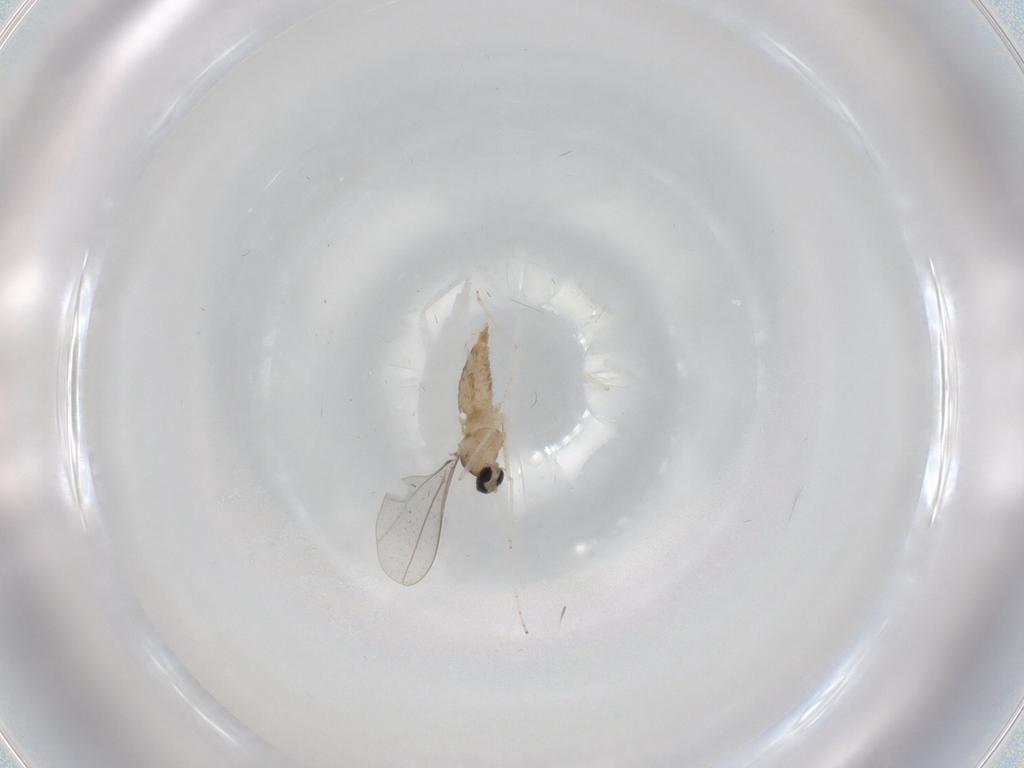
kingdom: Animalia
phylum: Arthropoda
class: Insecta
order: Diptera
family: Cecidomyiidae
